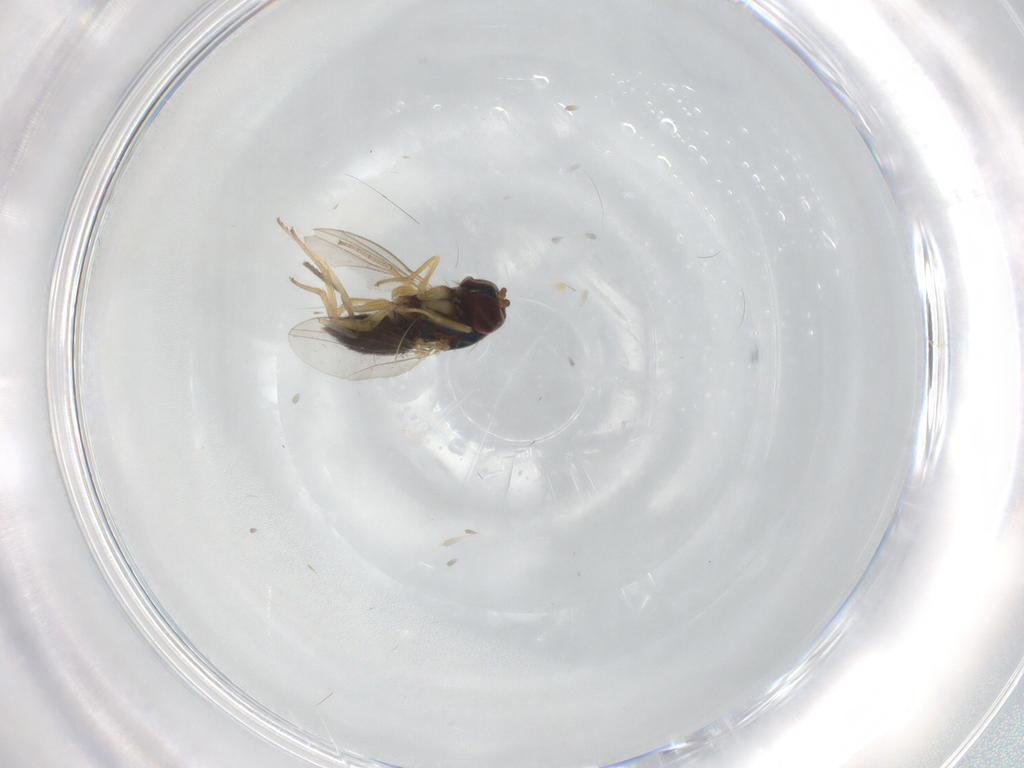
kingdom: Animalia
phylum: Arthropoda
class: Insecta
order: Diptera
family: Dolichopodidae
